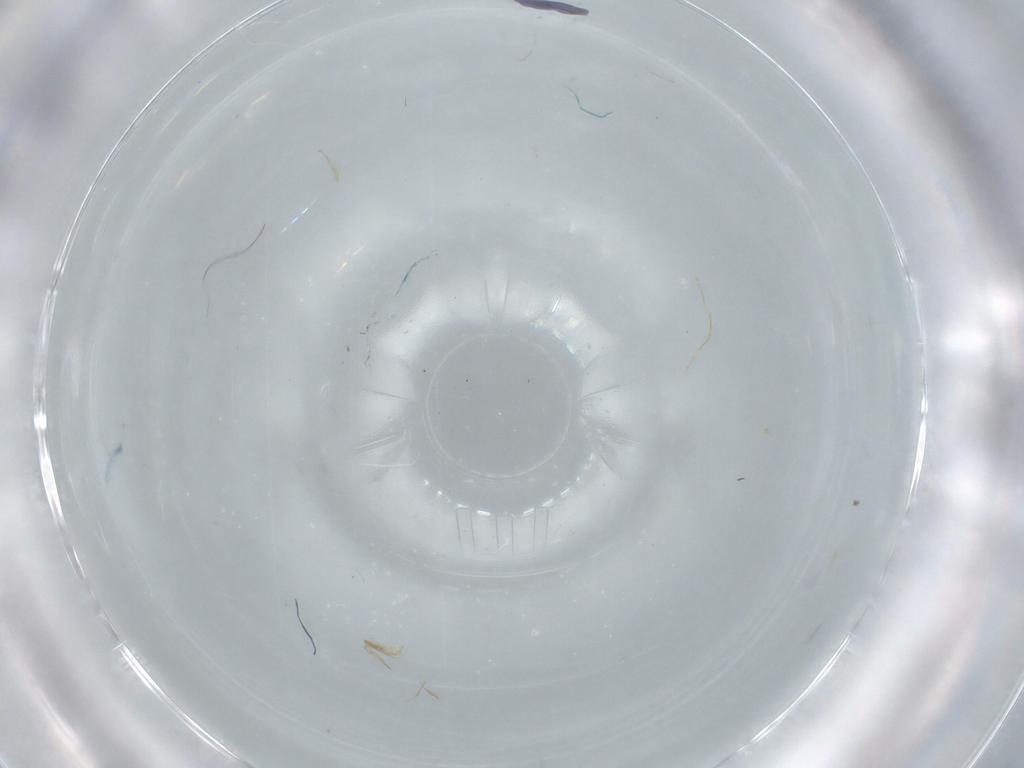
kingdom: Animalia
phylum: Arthropoda
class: Insecta
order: Diptera
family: Milichiidae
